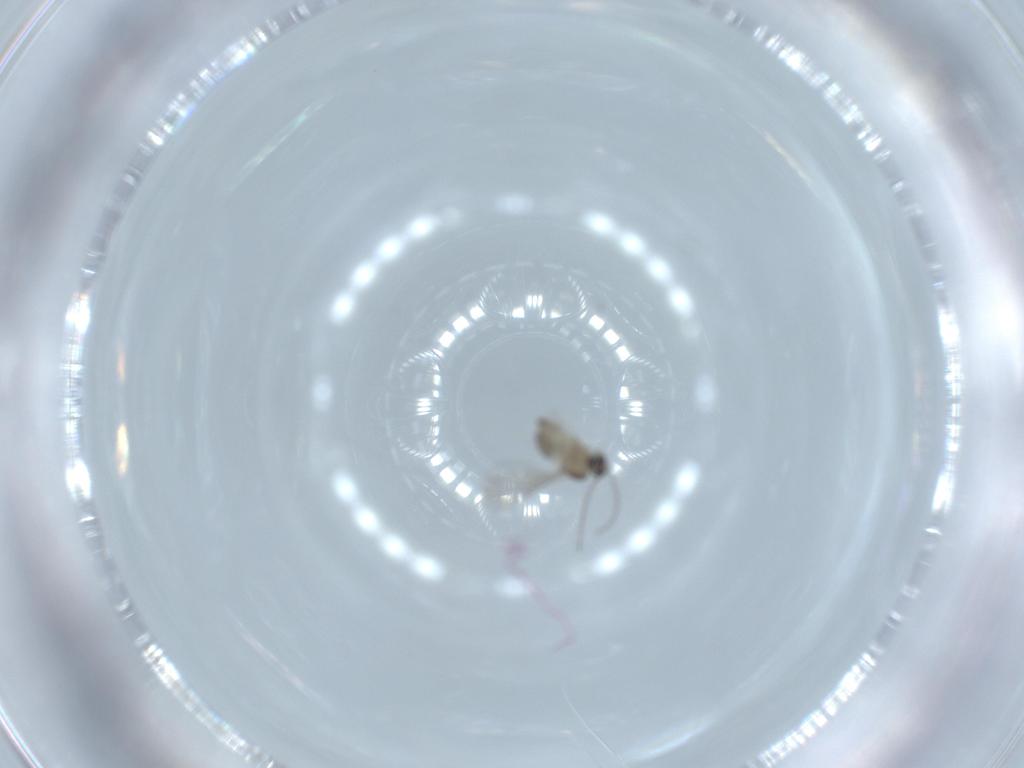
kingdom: Animalia
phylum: Arthropoda
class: Insecta
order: Diptera
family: Cecidomyiidae
